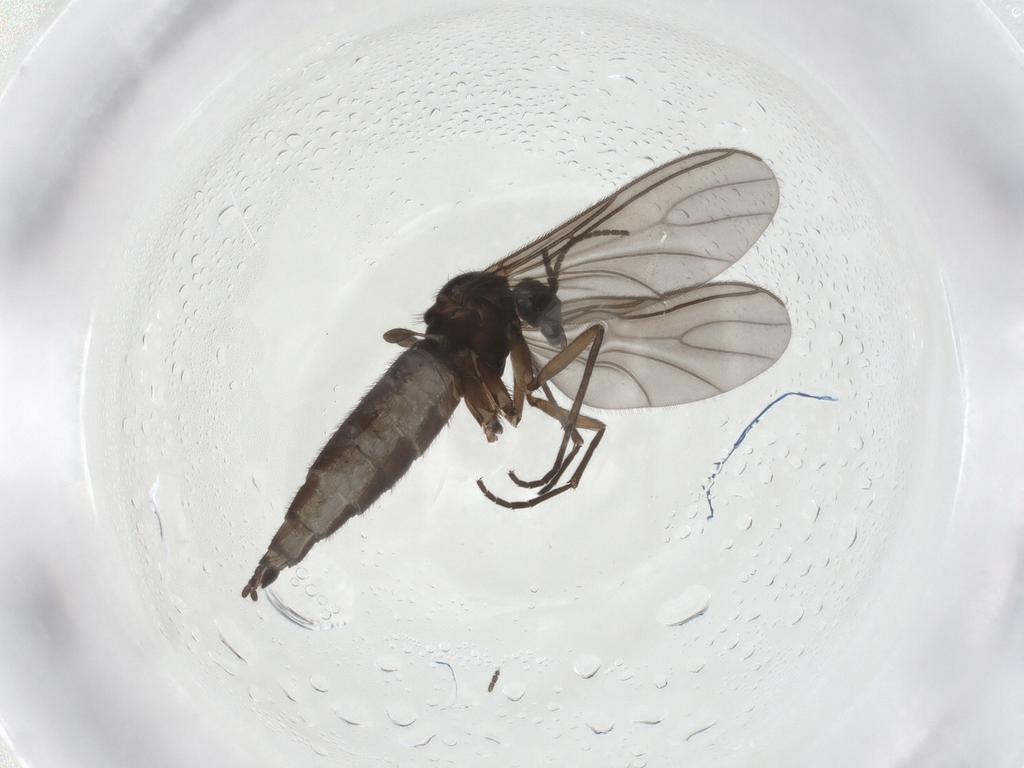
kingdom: Animalia
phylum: Arthropoda
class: Insecta
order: Diptera
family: Sciaridae
